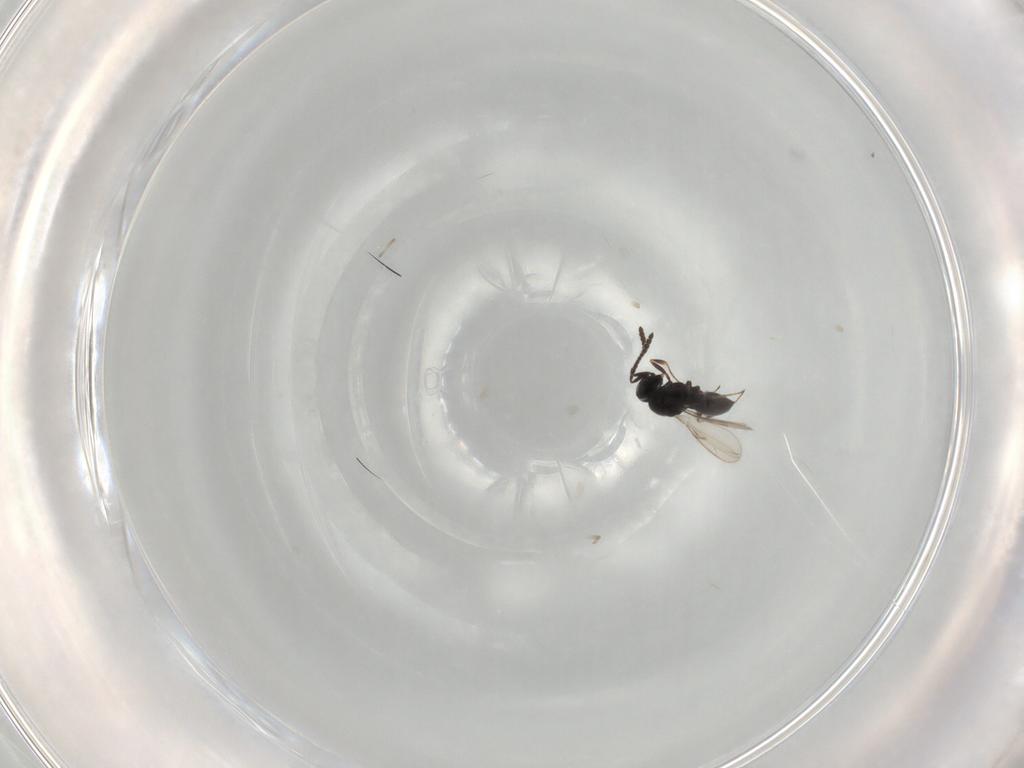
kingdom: Animalia
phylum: Arthropoda
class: Insecta
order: Hymenoptera
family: Scelionidae
